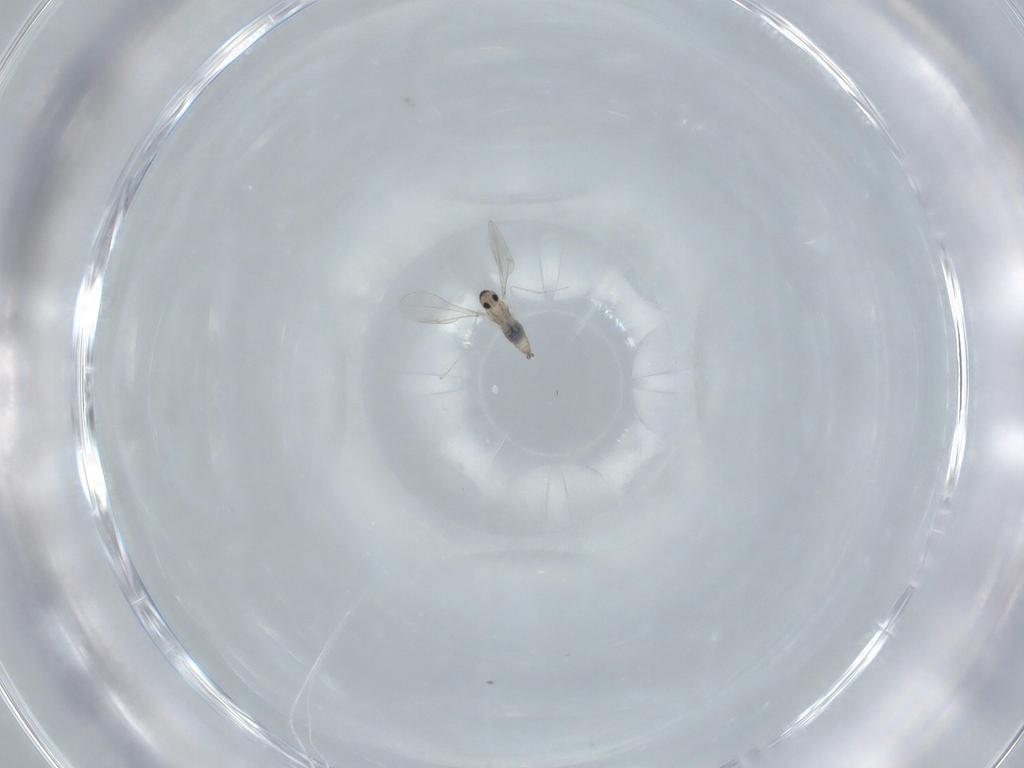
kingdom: Animalia
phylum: Arthropoda
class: Insecta
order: Diptera
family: Ceratopogonidae
